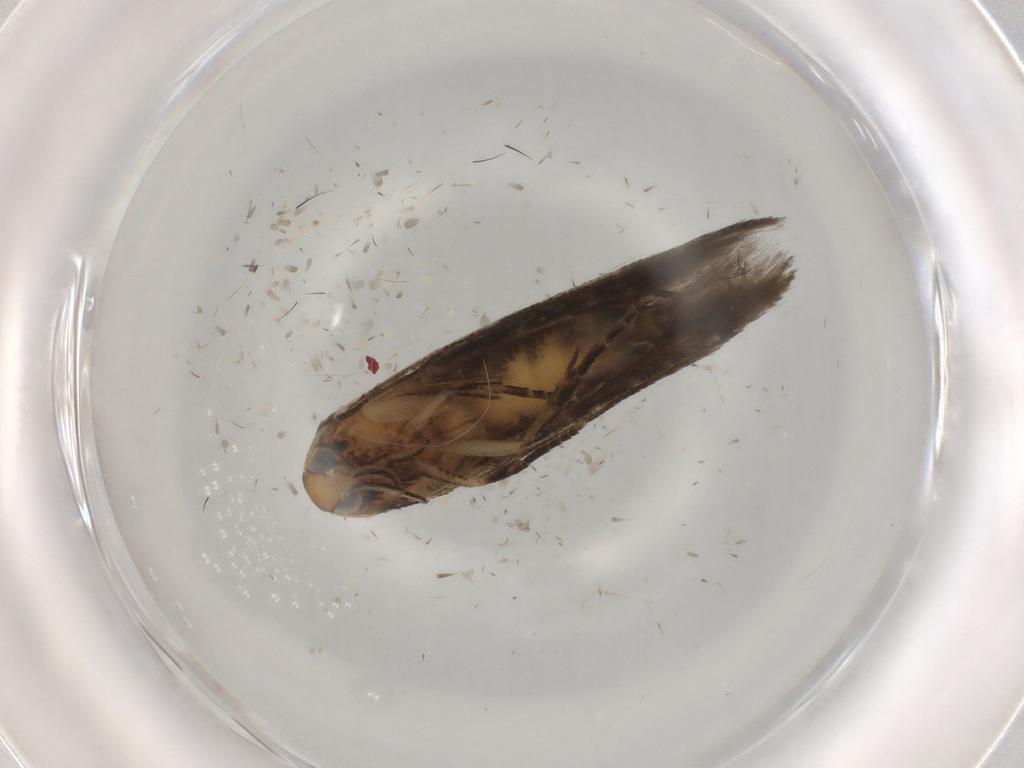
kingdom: Animalia
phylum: Arthropoda
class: Insecta
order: Lepidoptera
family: Cosmopterigidae
